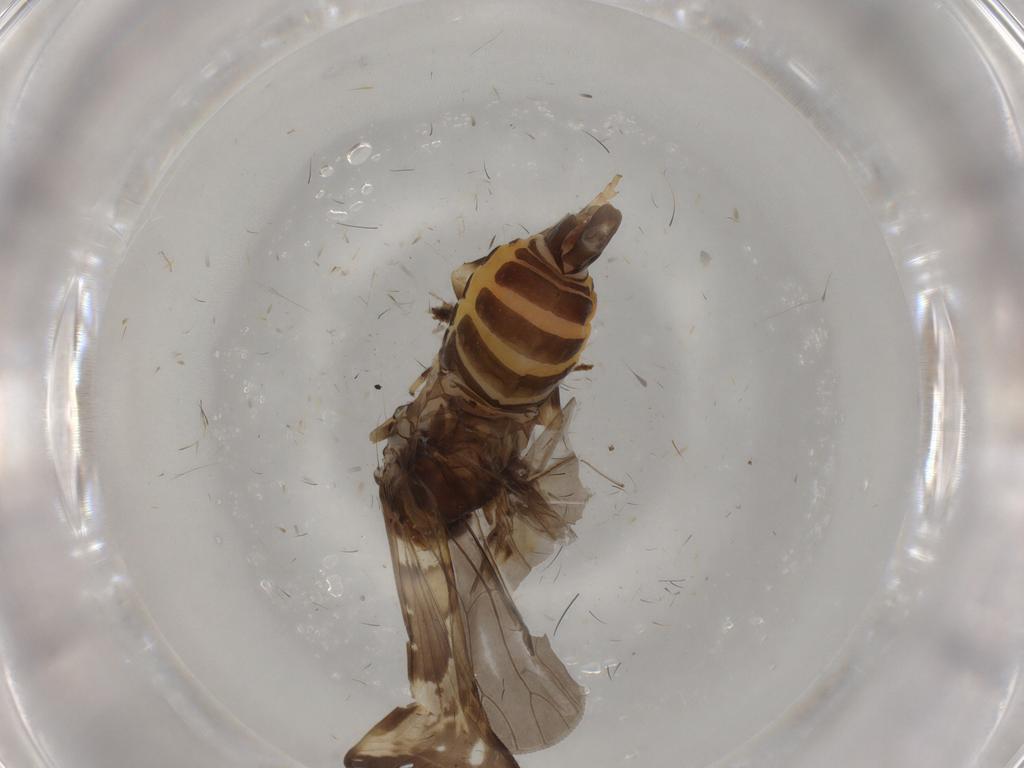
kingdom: Animalia
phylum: Arthropoda
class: Insecta
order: Hemiptera
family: Cixiidae
